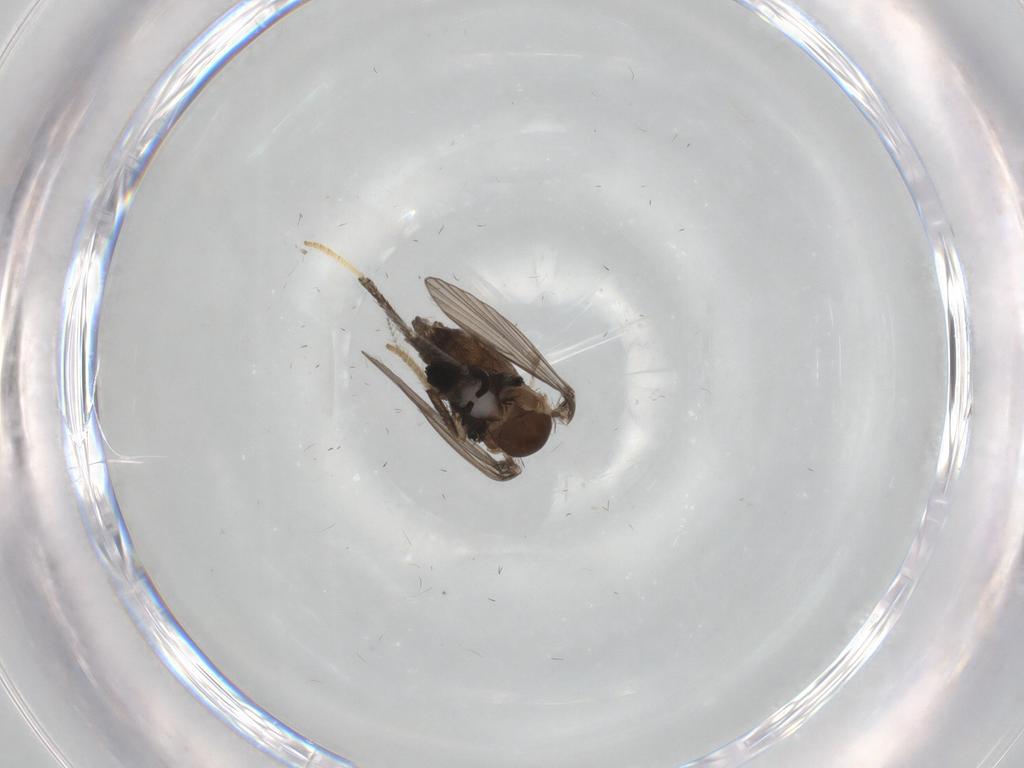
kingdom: Animalia
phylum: Arthropoda
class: Insecta
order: Diptera
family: Psychodidae
